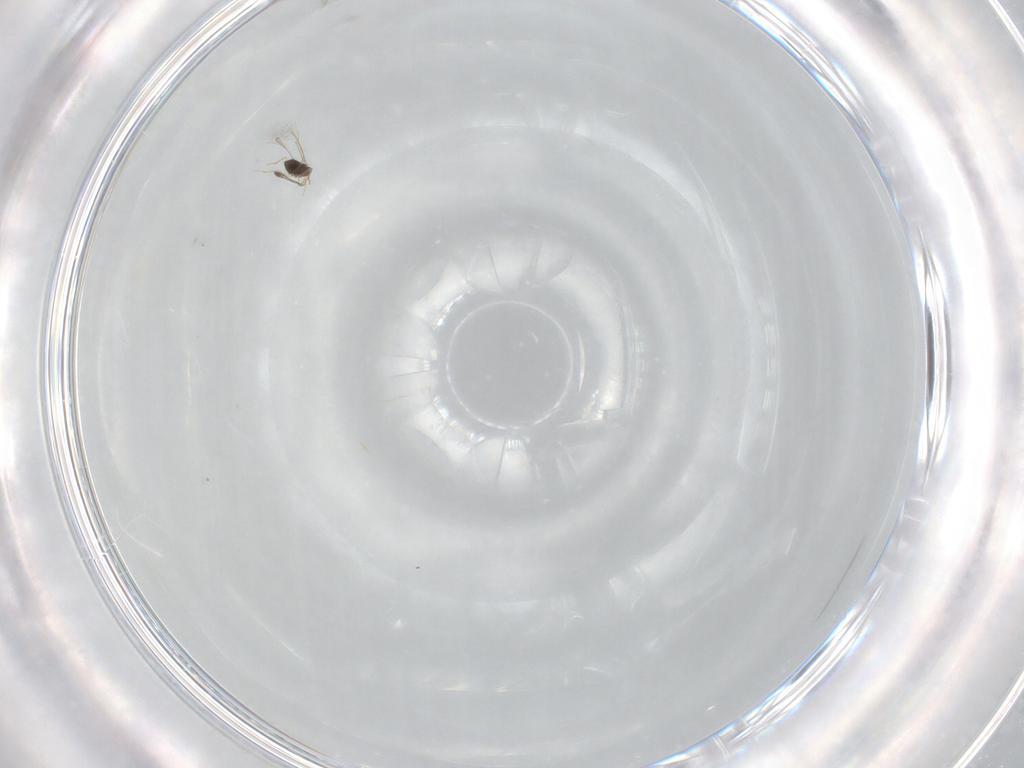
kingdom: Animalia
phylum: Arthropoda
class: Insecta
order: Hymenoptera
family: Mymaridae
